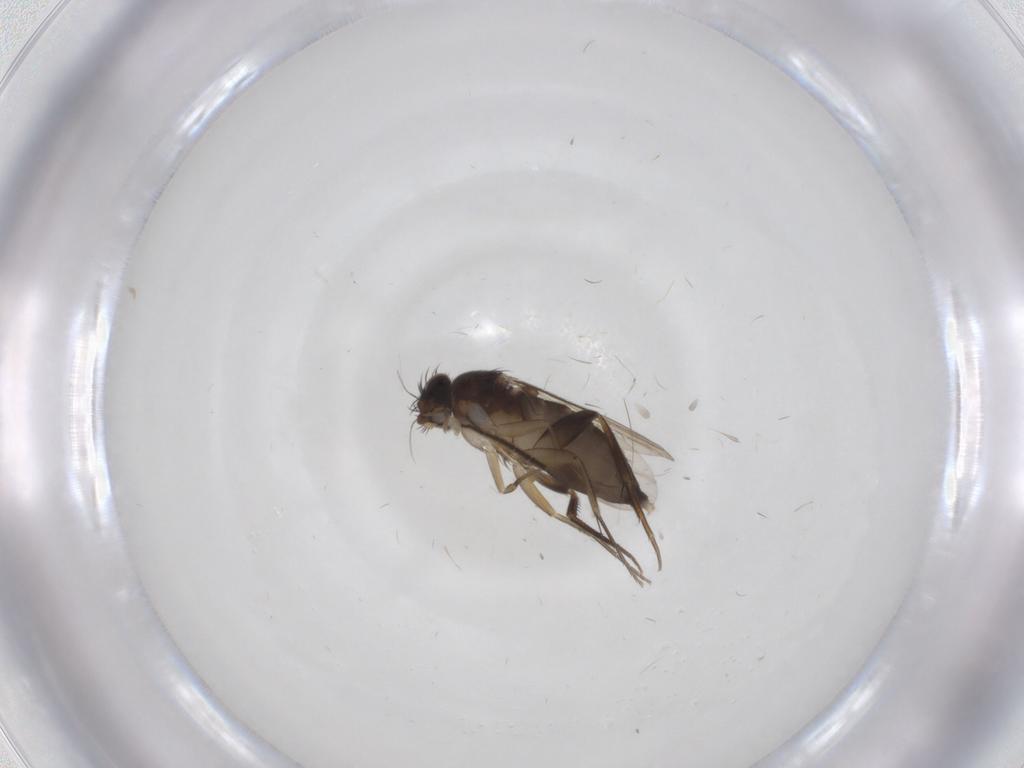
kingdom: Animalia
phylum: Arthropoda
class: Insecta
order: Diptera
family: Phoridae
